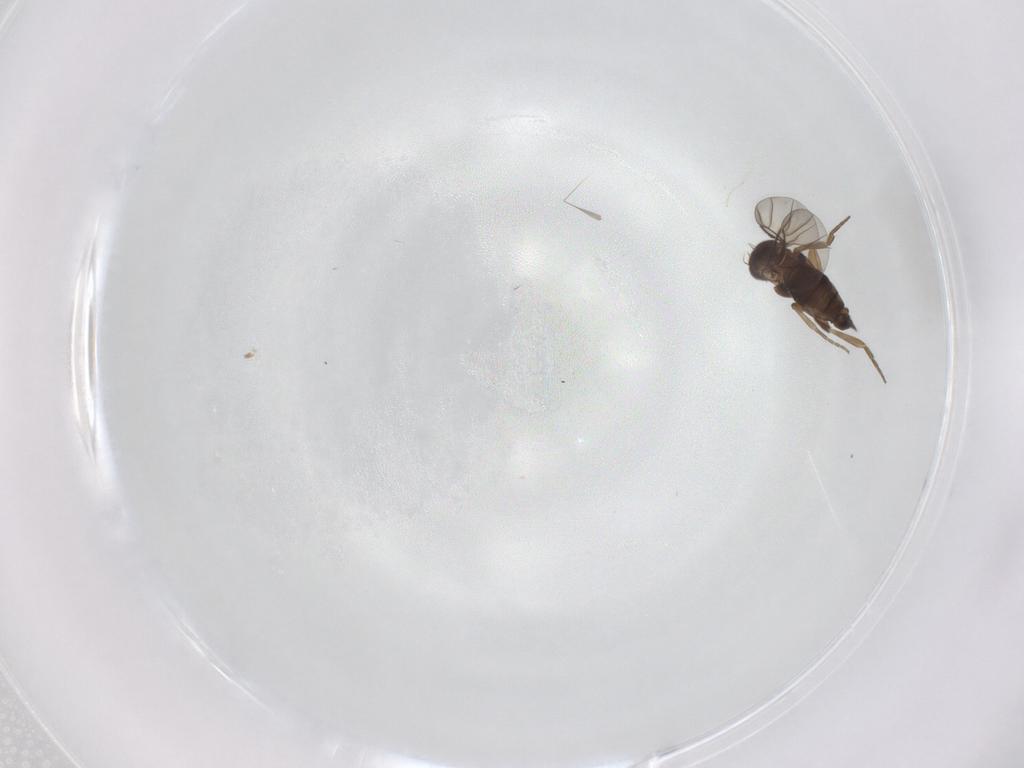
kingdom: Animalia
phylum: Arthropoda
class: Insecta
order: Diptera
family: Phoridae
